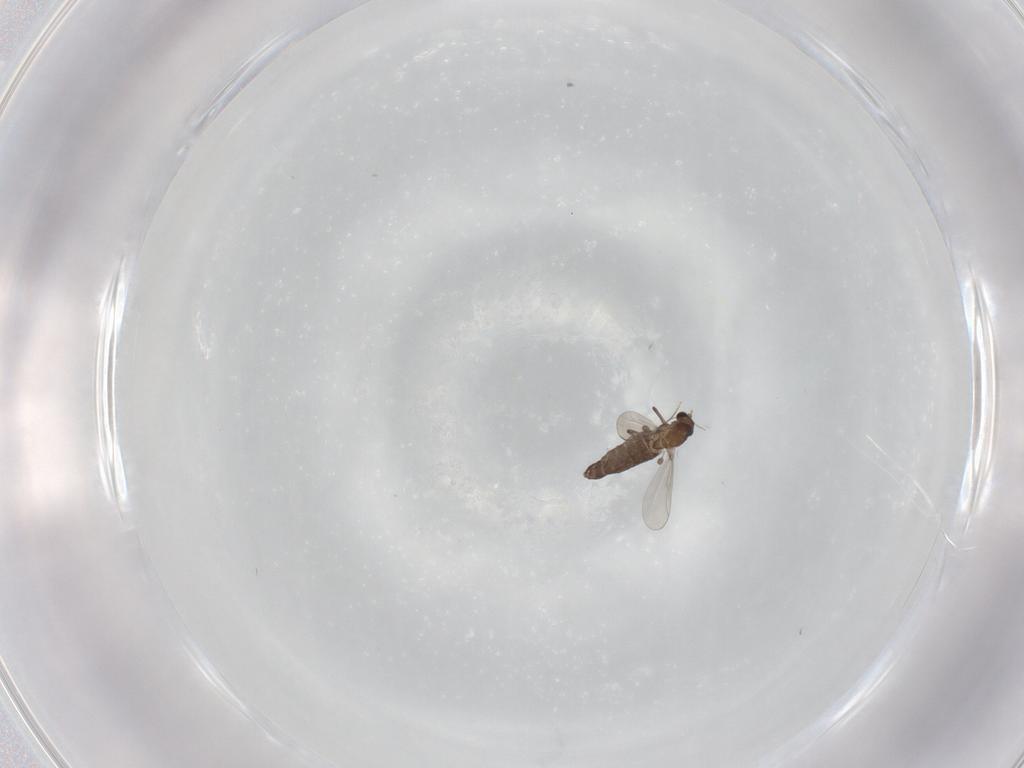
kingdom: Animalia
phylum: Arthropoda
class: Insecta
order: Diptera
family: Chironomidae
